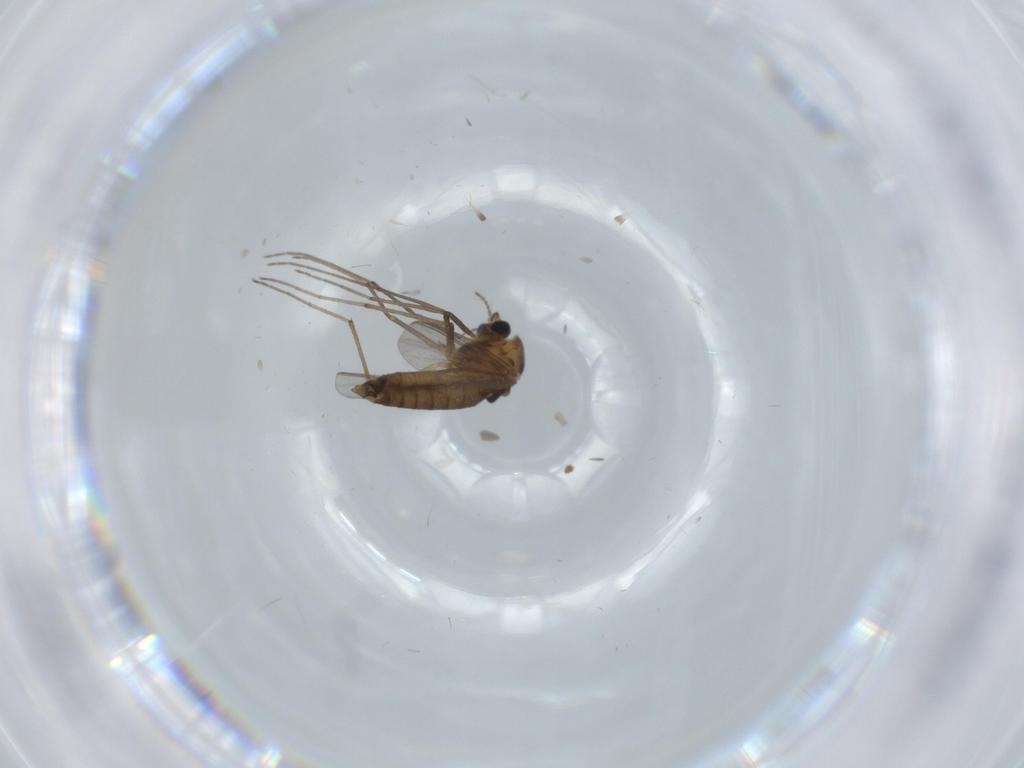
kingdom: Animalia
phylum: Arthropoda
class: Insecta
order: Diptera
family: Chironomidae
